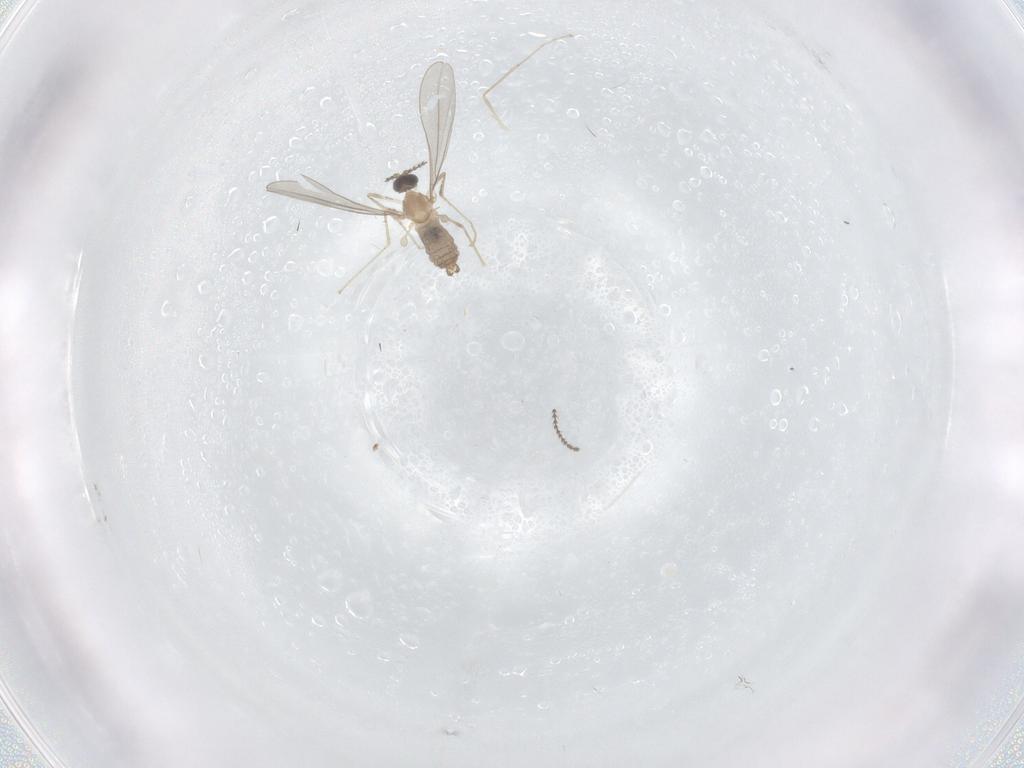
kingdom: Animalia
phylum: Arthropoda
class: Insecta
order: Diptera
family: Cecidomyiidae
